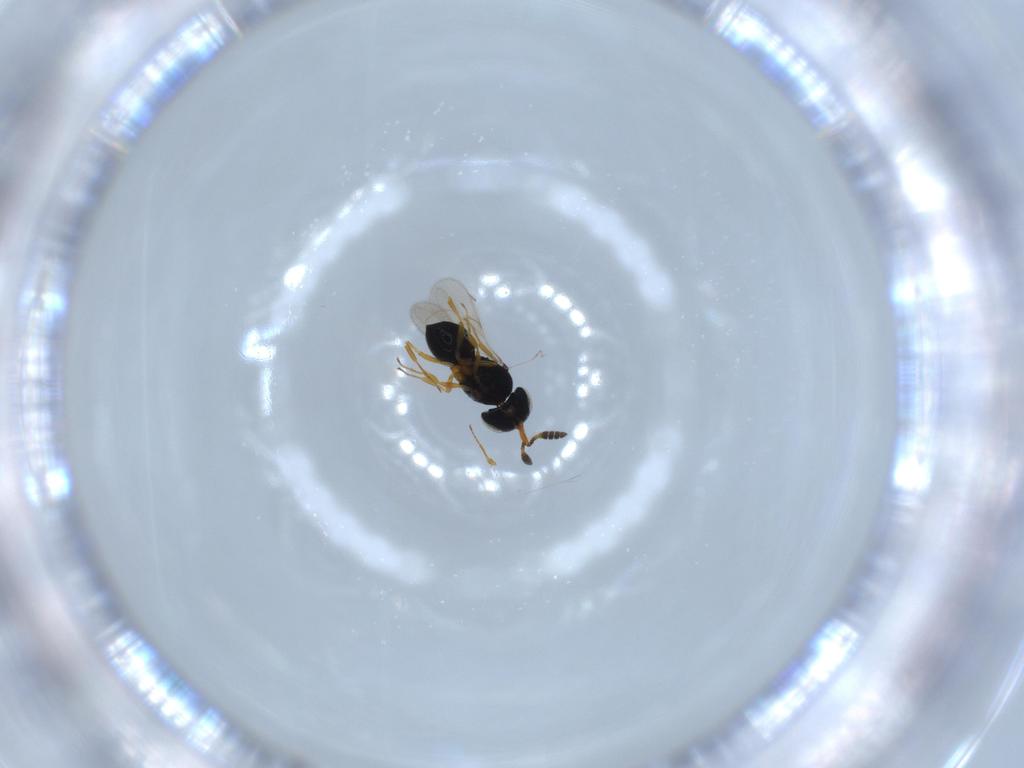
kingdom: Animalia
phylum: Arthropoda
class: Insecta
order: Hymenoptera
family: Scelionidae
